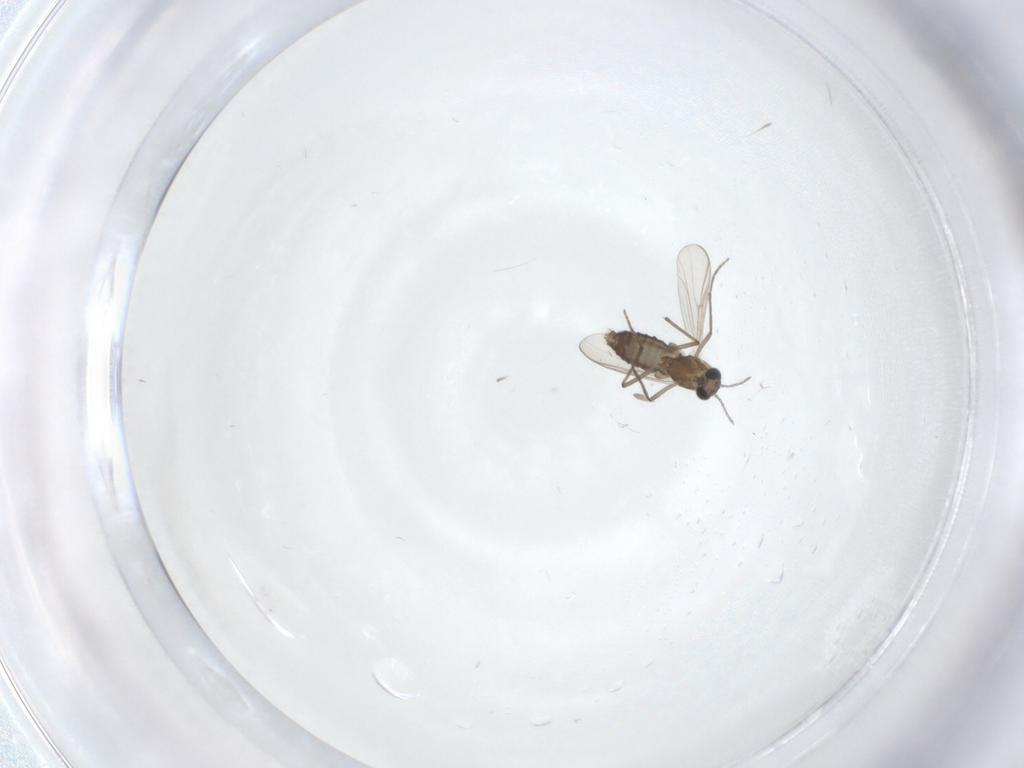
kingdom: Animalia
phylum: Arthropoda
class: Insecta
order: Diptera
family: Chironomidae
